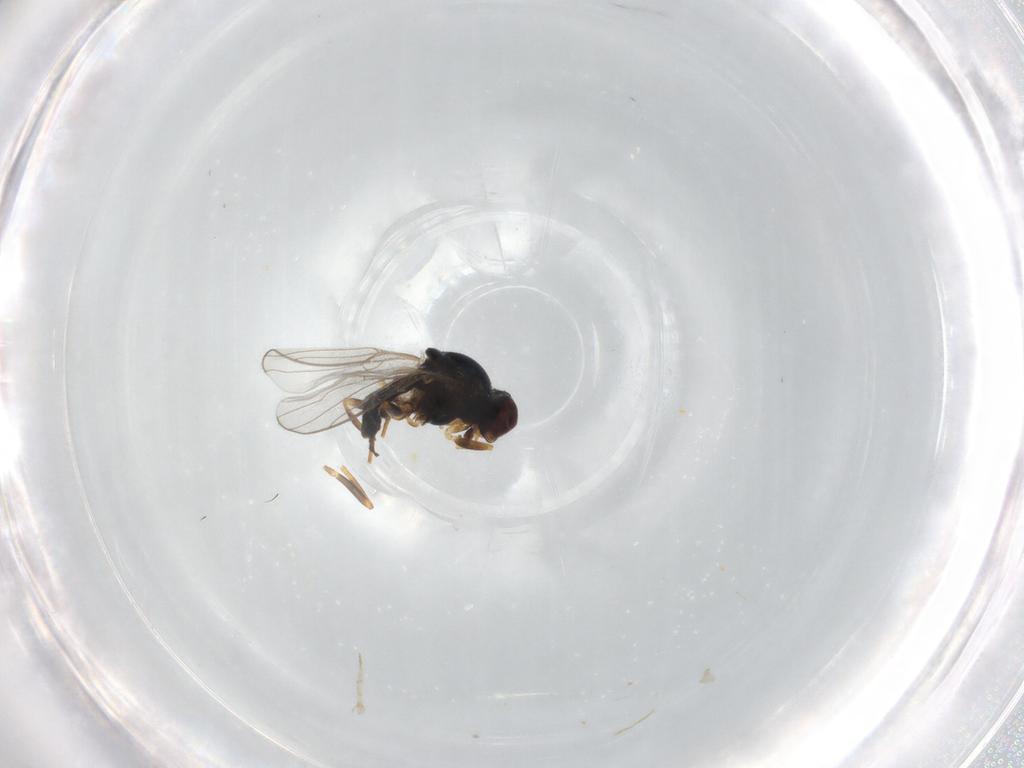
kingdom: Animalia
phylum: Arthropoda
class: Insecta
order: Diptera
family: Chloropidae
